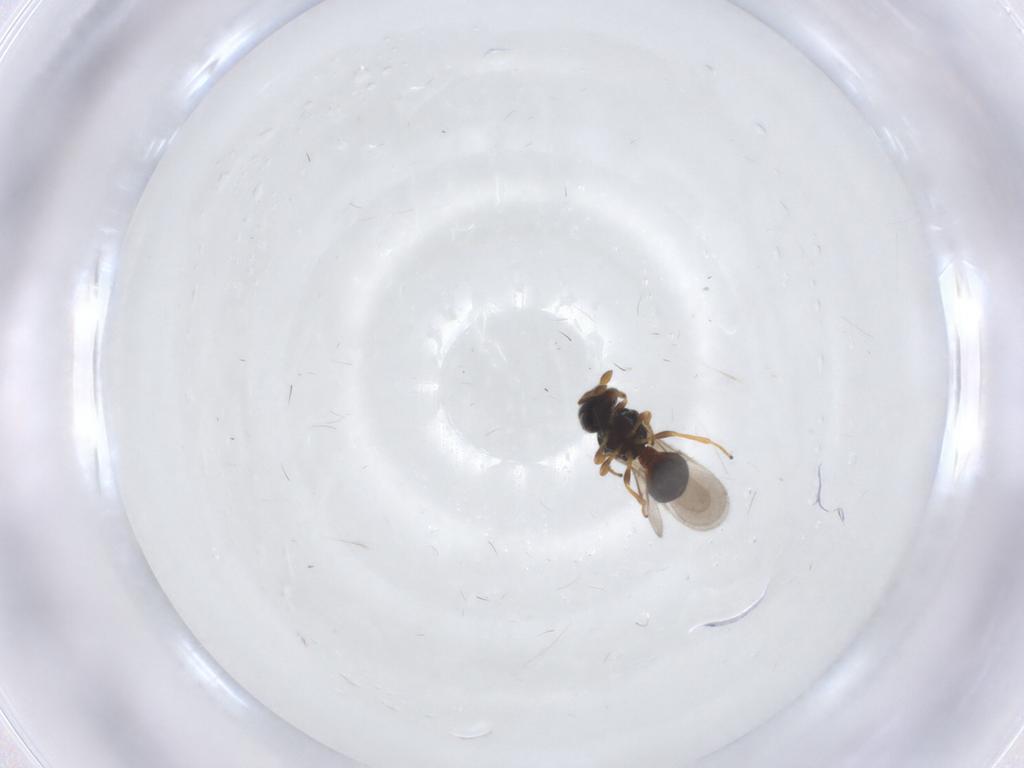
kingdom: Animalia
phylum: Arthropoda
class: Insecta
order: Hymenoptera
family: Scelionidae
